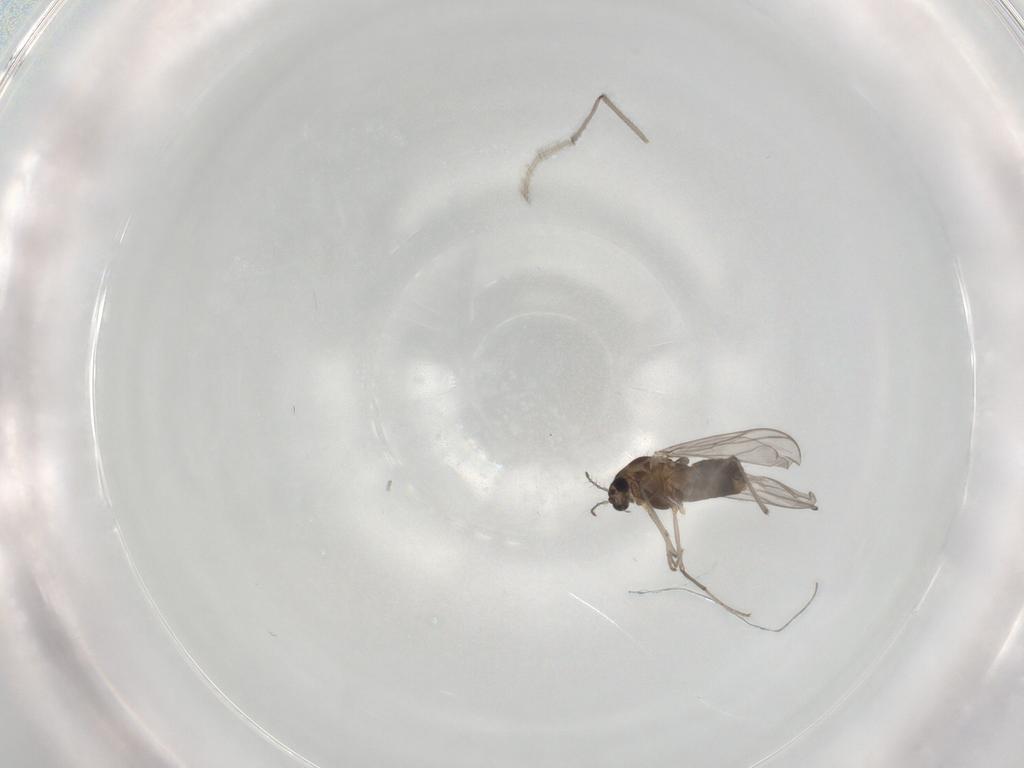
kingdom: Animalia
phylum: Arthropoda
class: Insecta
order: Diptera
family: Chironomidae
